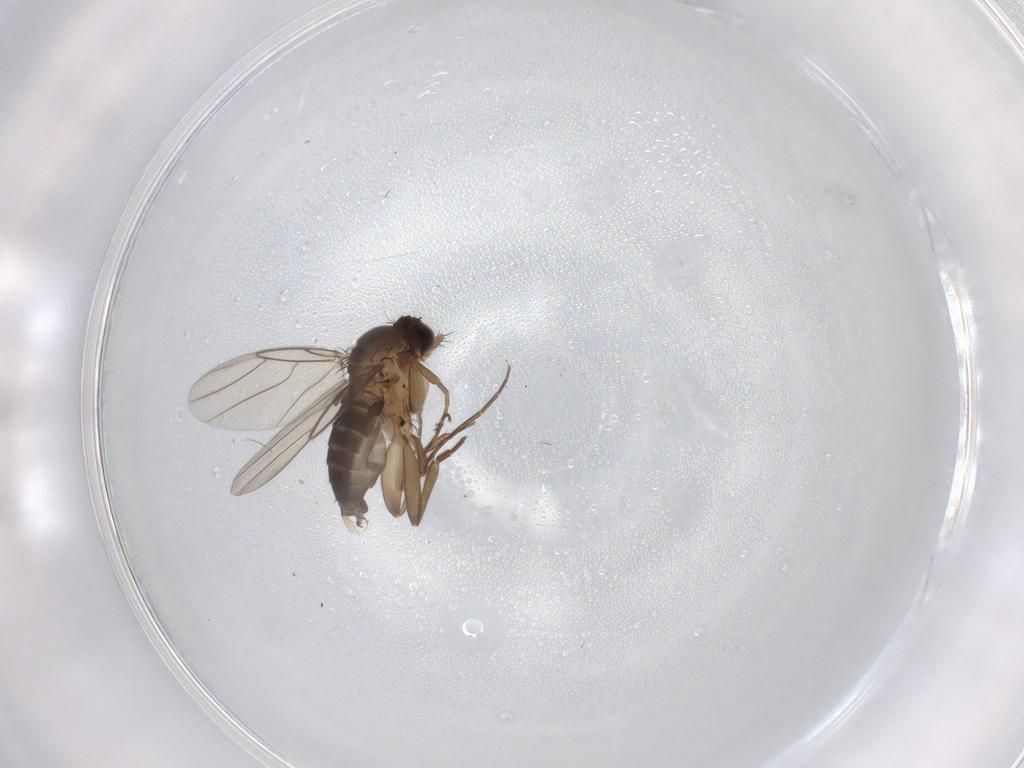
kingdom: Animalia
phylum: Arthropoda
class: Insecta
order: Diptera
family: Phoridae
